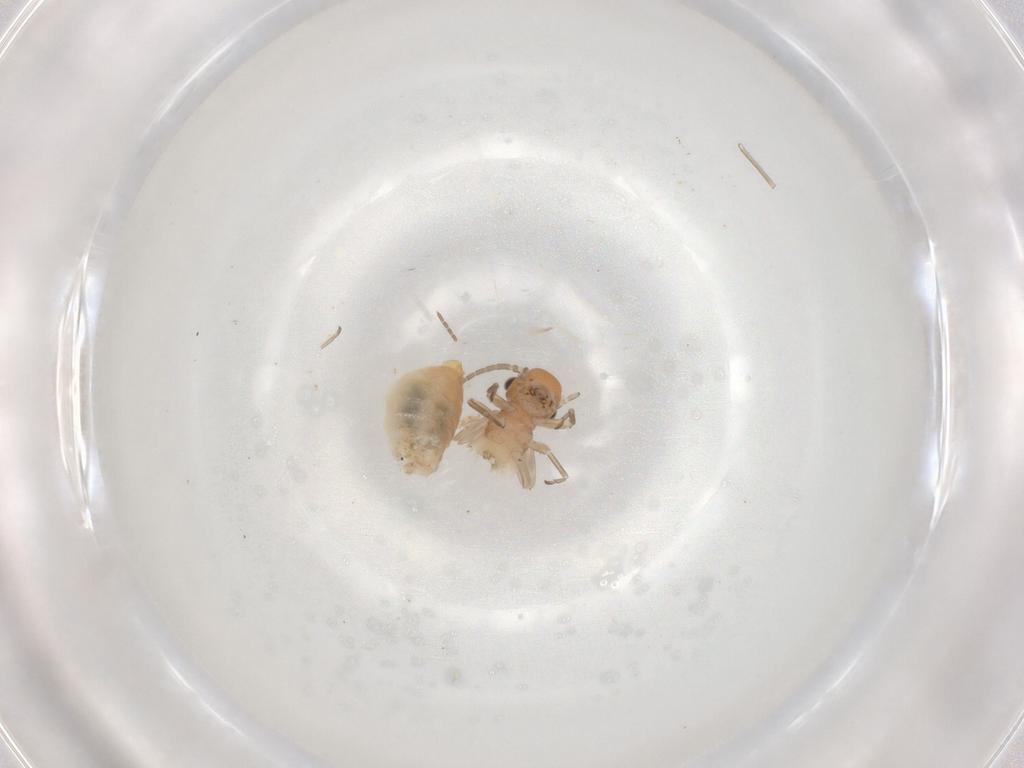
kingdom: Animalia
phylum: Arthropoda
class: Insecta
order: Psocodea
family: Caeciliusidae
